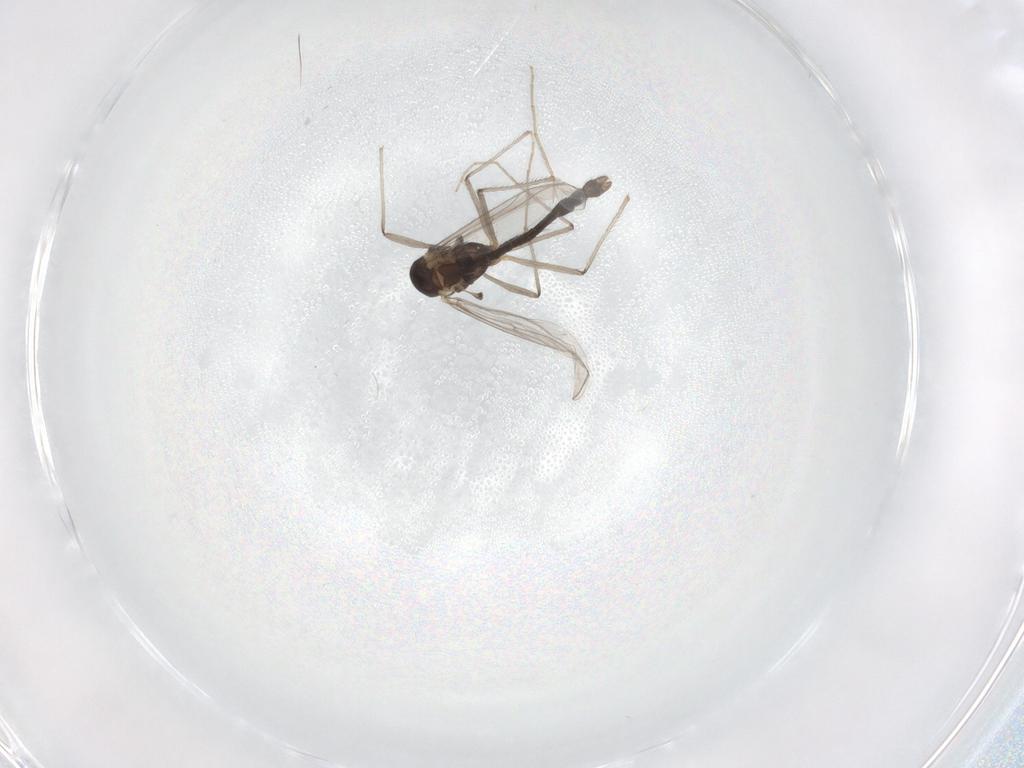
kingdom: Animalia
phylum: Arthropoda
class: Insecta
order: Diptera
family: Chironomidae
